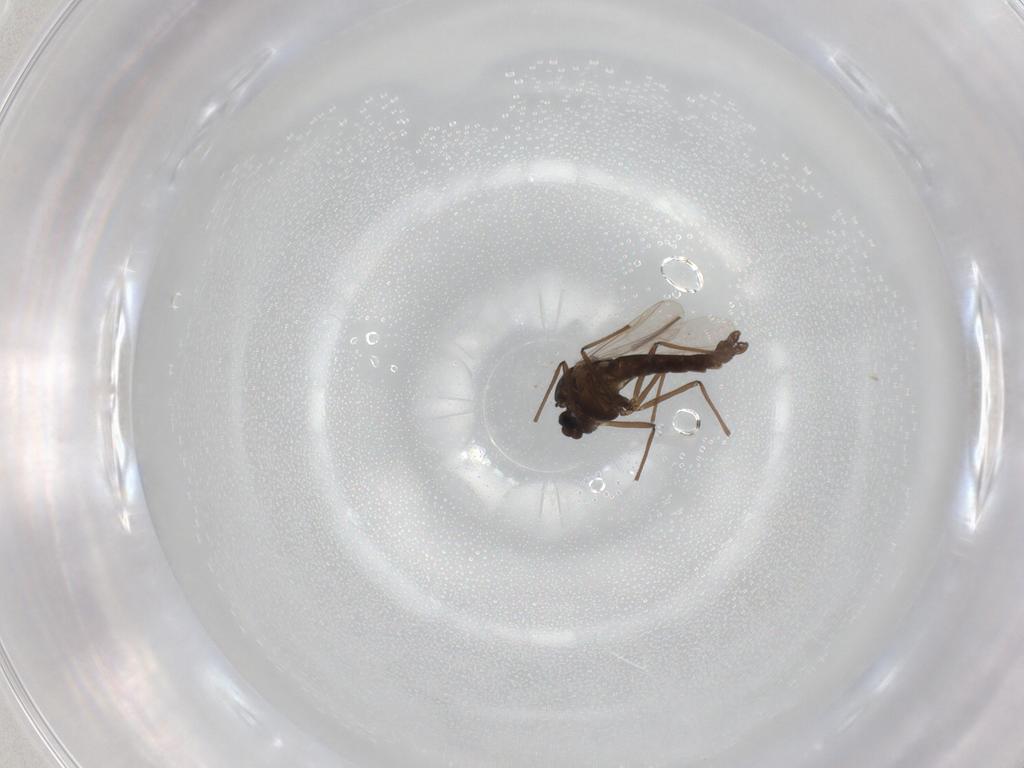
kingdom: Animalia
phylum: Arthropoda
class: Insecta
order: Diptera
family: Chironomidae
